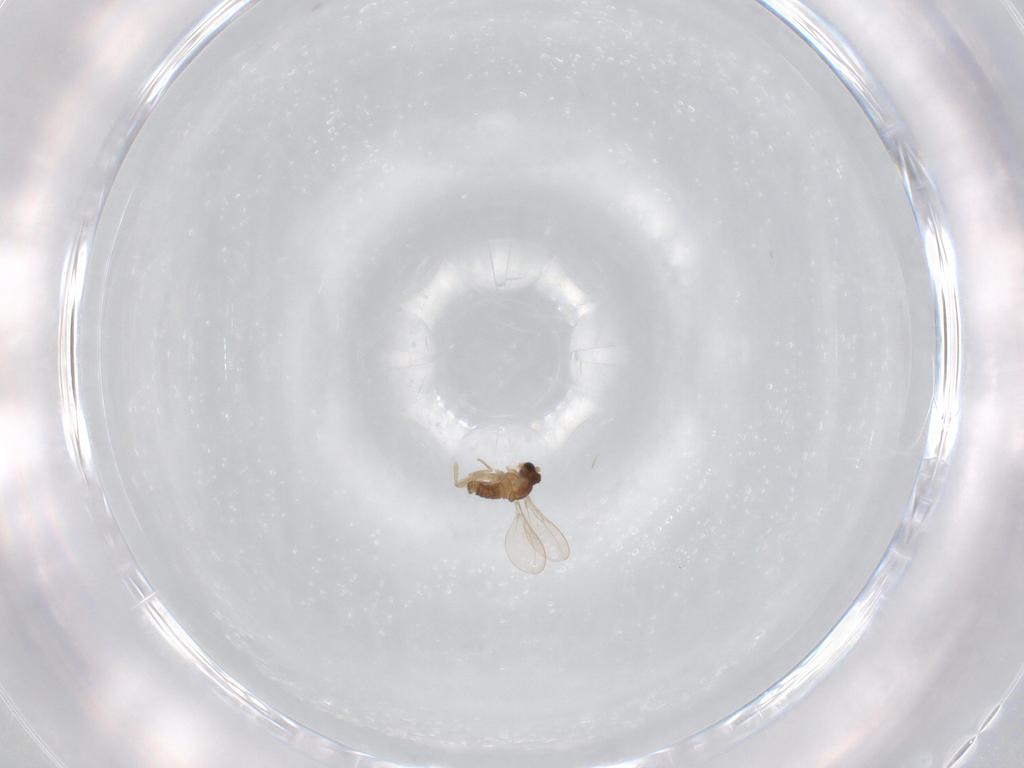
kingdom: Animalia
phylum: Arthropoda
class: Insecta
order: Diptera
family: Cecidomyiidae
